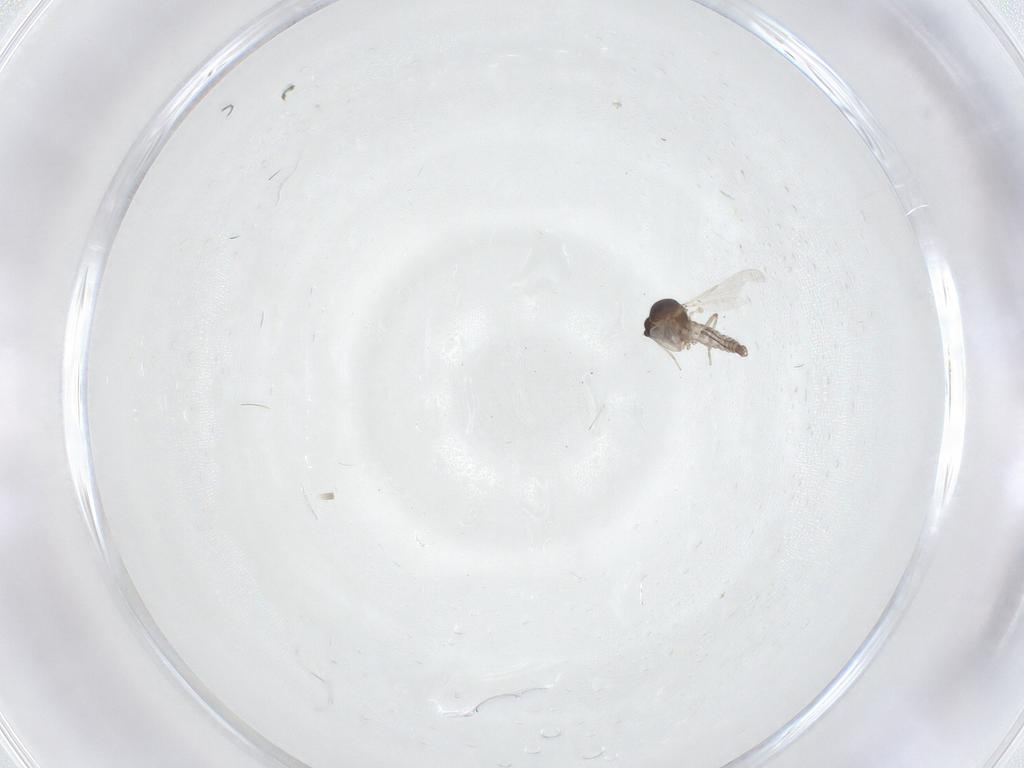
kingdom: Animalia
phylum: Arthropoda
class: Insecta
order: Diptera
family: Ceratopogonidae
